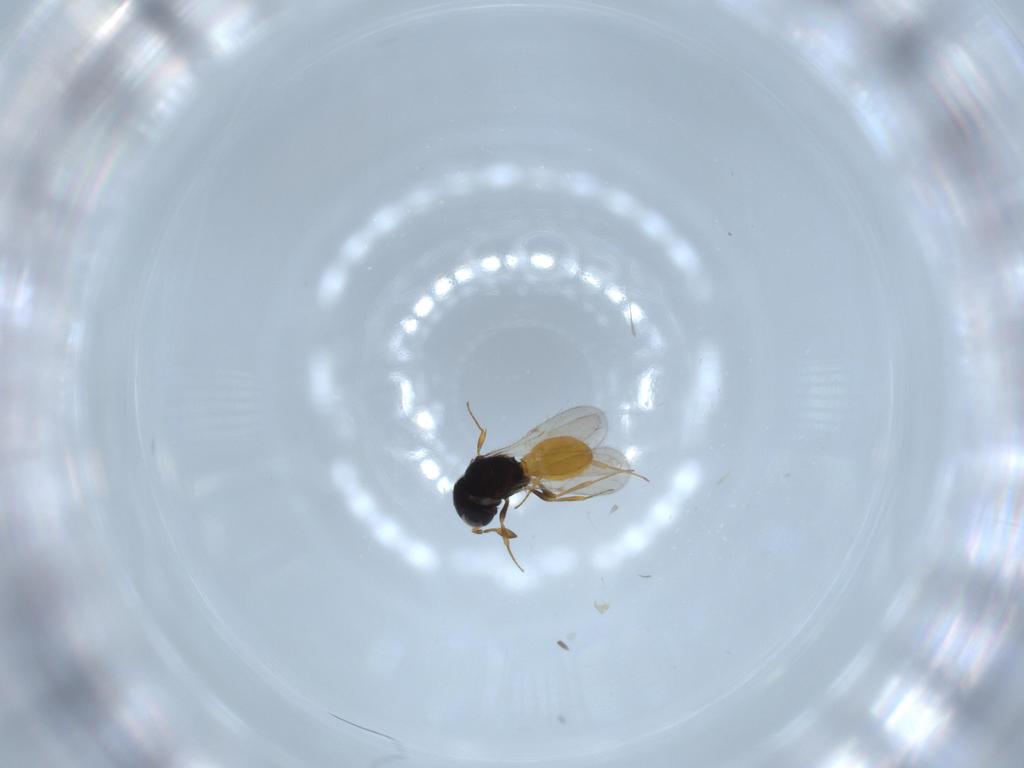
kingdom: Animalia
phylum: Arthropoda
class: Insecta
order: Hymenoptera
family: Scelionidae
